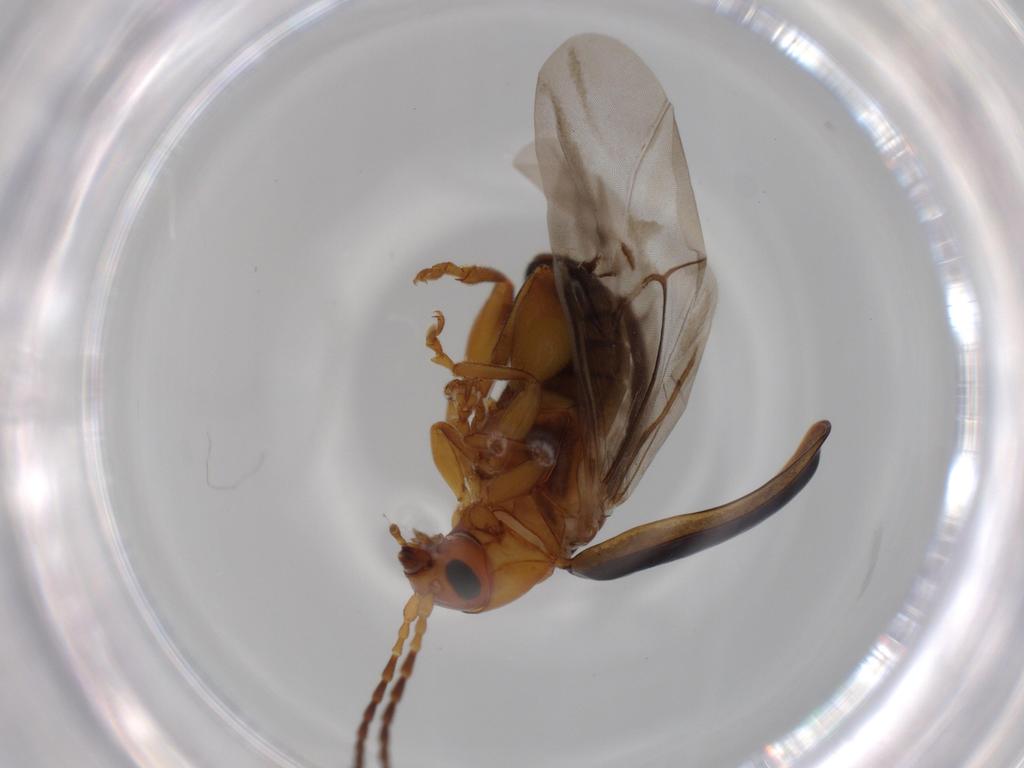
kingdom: Animalia
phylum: Arthropoda
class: Insecta
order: Coleoptera
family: Chrysomelidae
